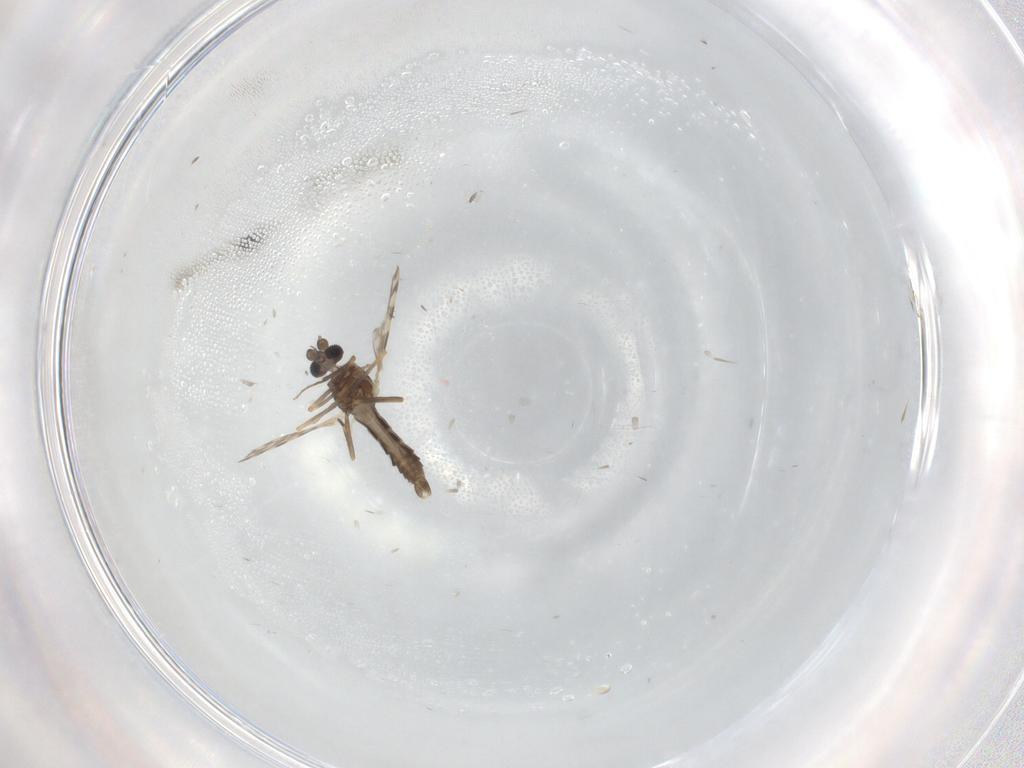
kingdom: Animalia
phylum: Arthropoda
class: Insecta
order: Diptera
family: Ceratopogonidae
